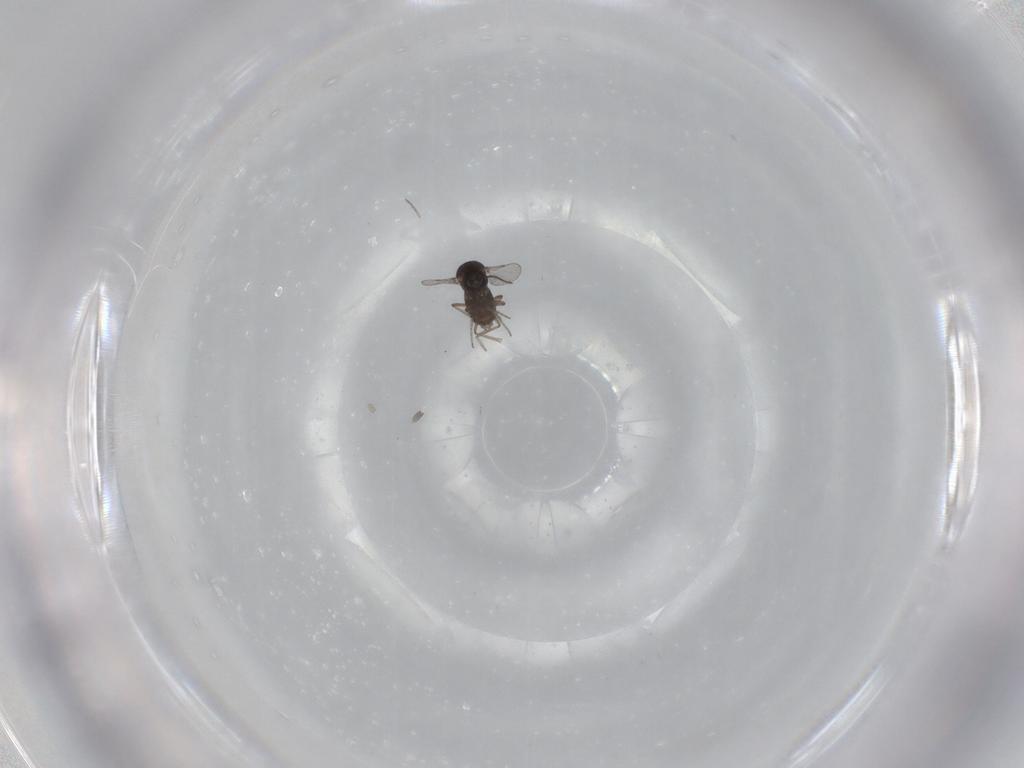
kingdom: Animalia
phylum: Arthropoda
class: Insecta
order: Diptera
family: Ceratopogonidae
